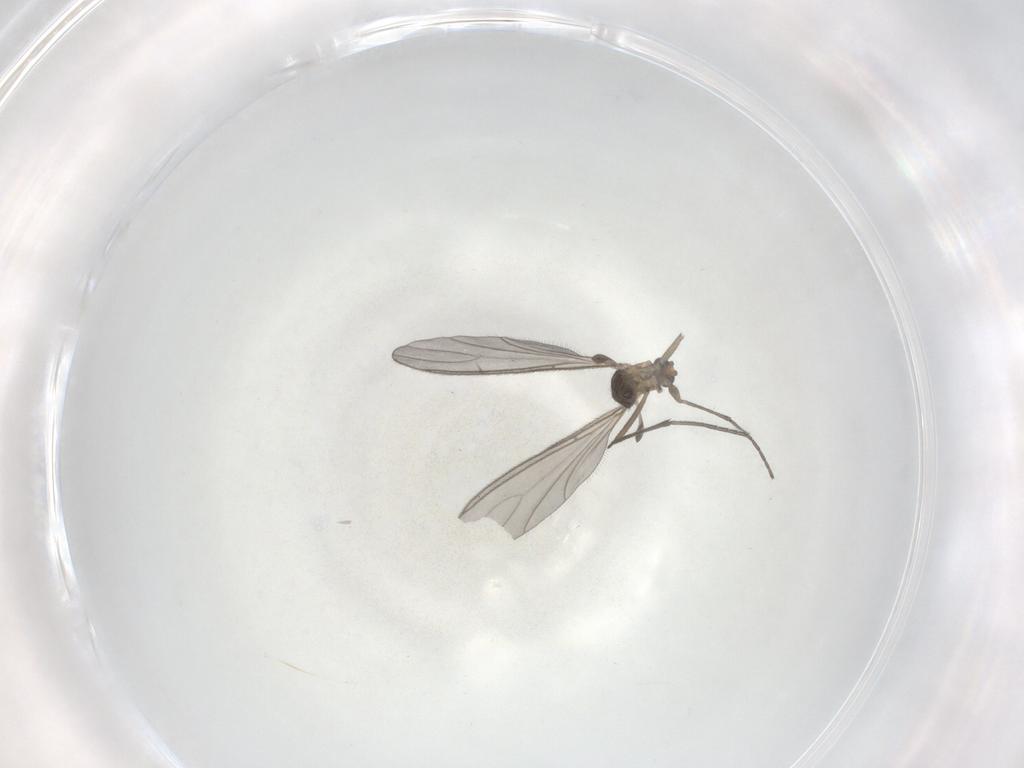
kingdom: Animalia
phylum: Arthropoda
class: Insecta
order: Diptera
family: Sciaridae
